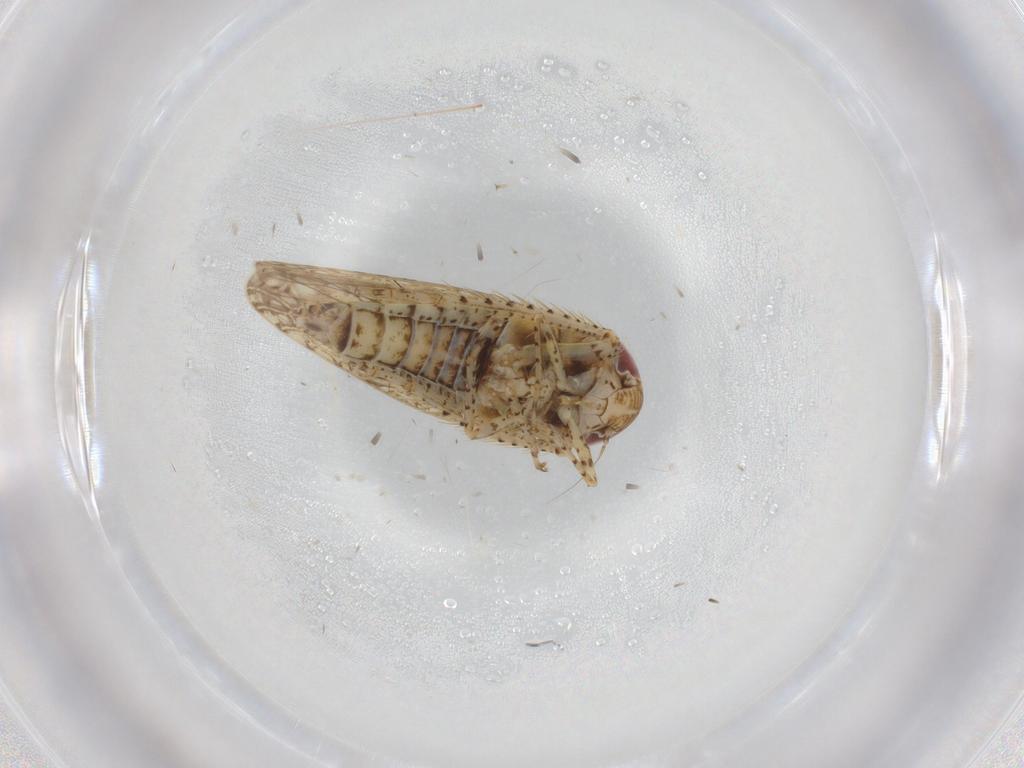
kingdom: Animalia
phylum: Arthropoda
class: Insecta
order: Hemiptera
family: Cicadellidae
